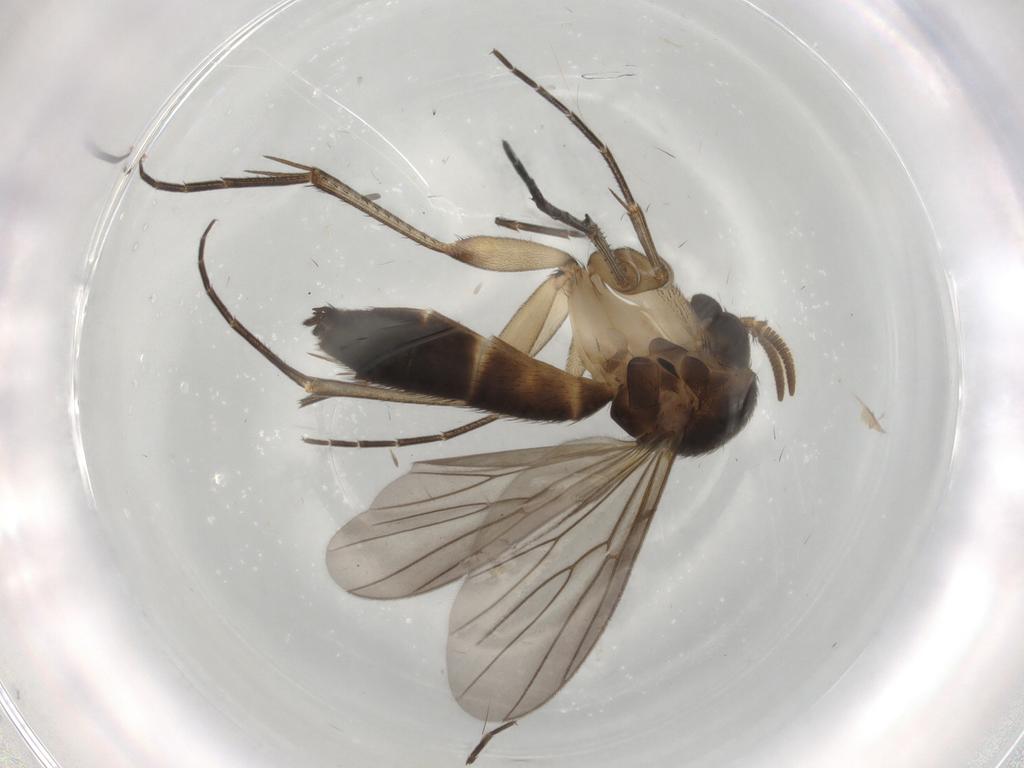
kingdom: Animalia
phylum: Arthropoda
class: Insecta
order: Diptera
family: Mycetophilidae
